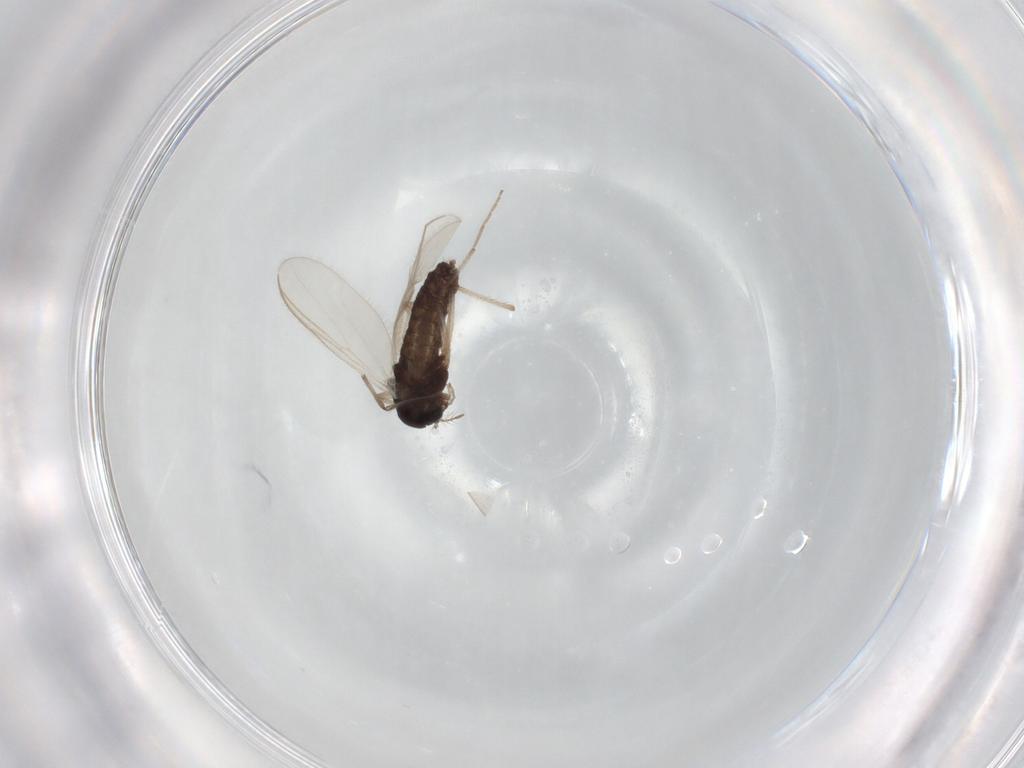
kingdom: Animalia
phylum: Arthropoda
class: Insecta
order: Diptera
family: Chironomidae
